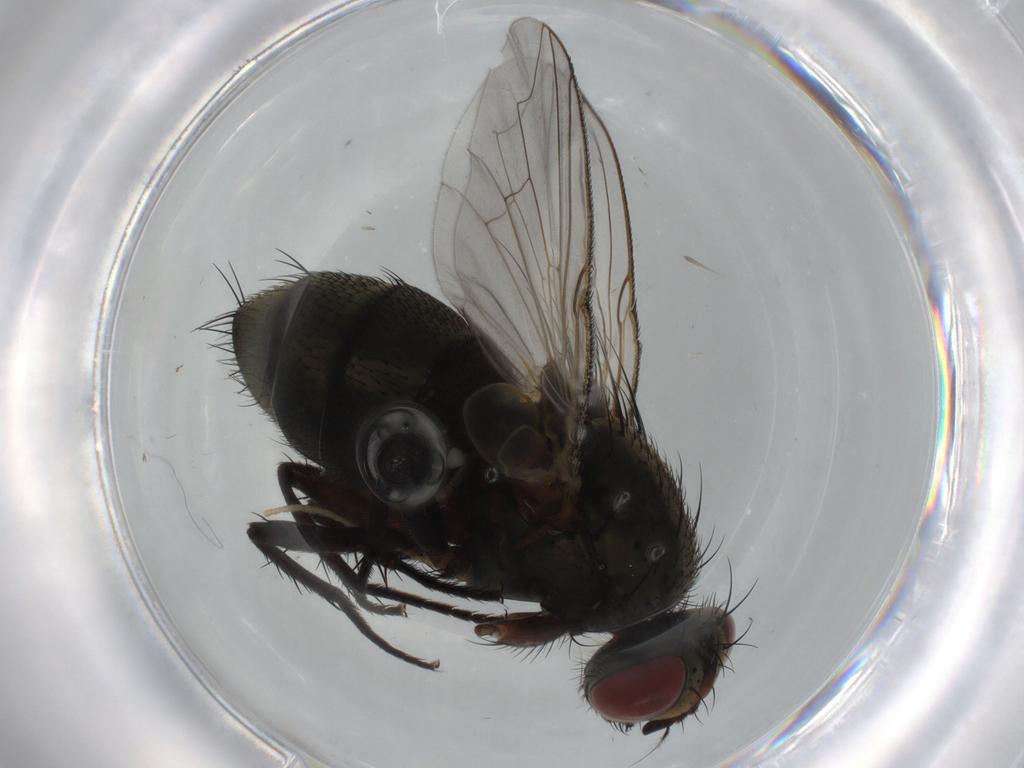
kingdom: Animalia
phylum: Arthropoda
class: Insecta
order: Diptera
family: Sarcophagidae
